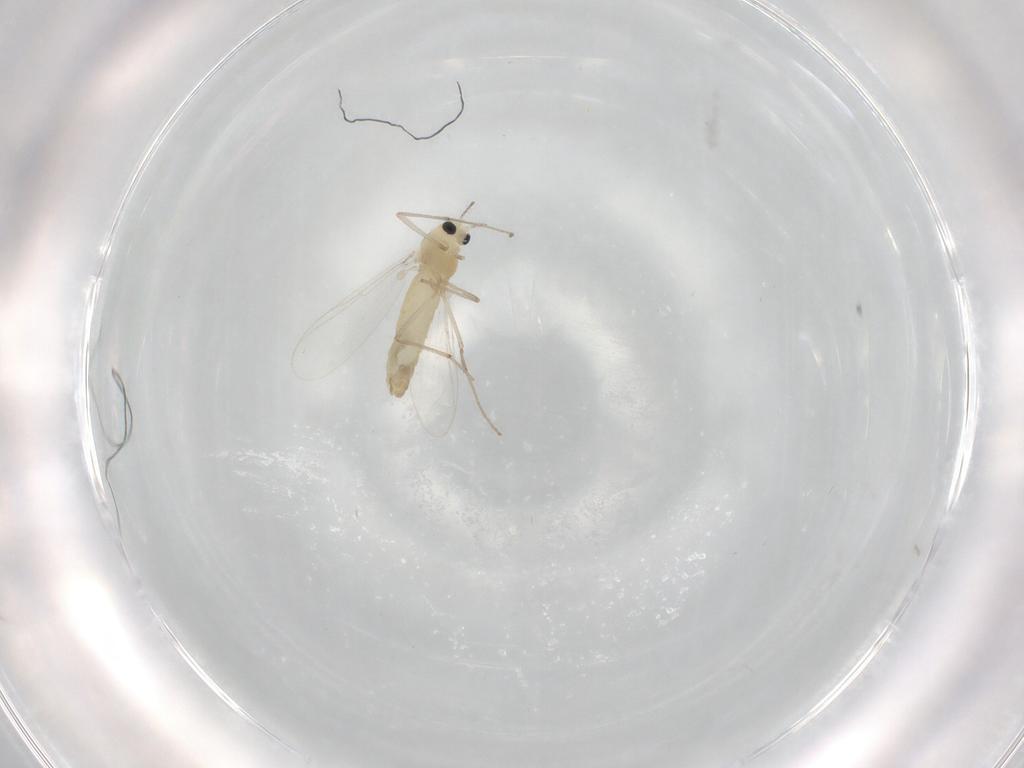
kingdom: Animalia
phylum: Arthropoda
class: Insecta
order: Diptera
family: Chironomidae
